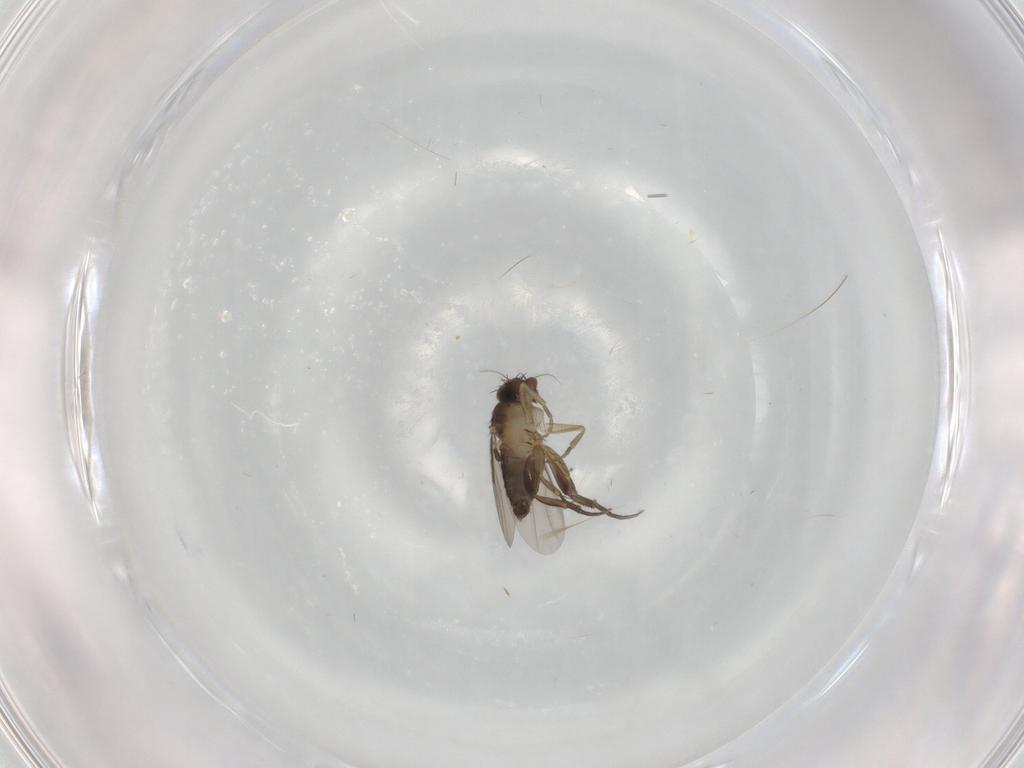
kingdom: Animalia
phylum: Arthropoda
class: Insecta
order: Diptera
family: Chironomidae
